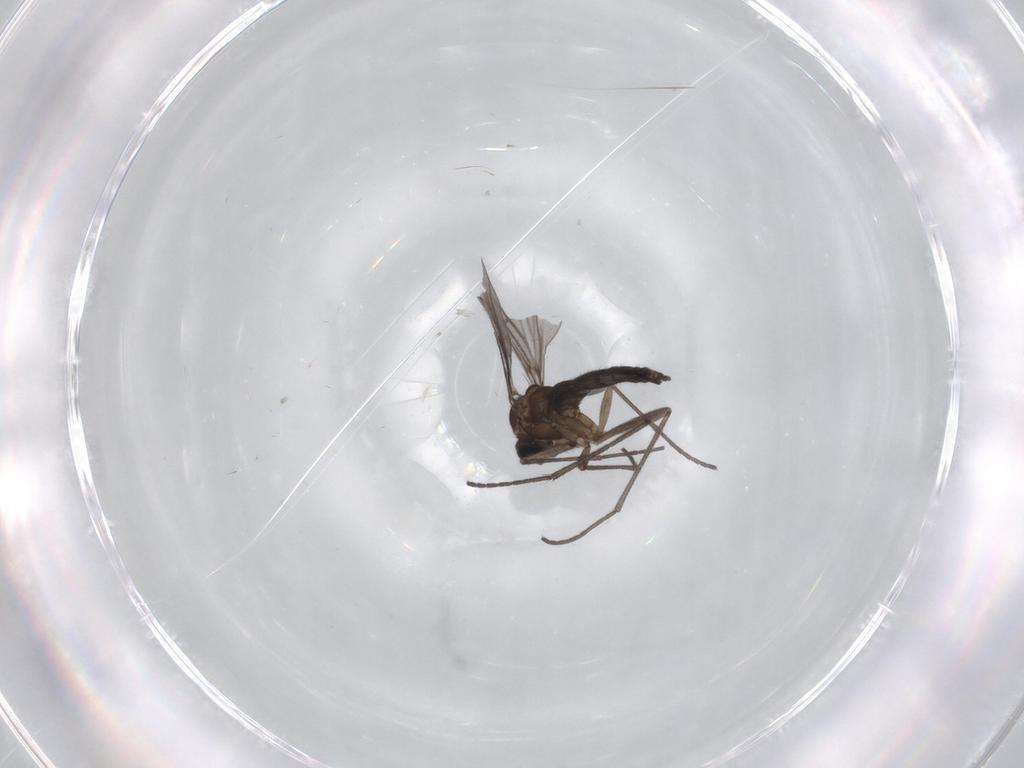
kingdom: Animalia
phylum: Arthropoda
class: Insecta
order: Diptera
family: Sciaridae
